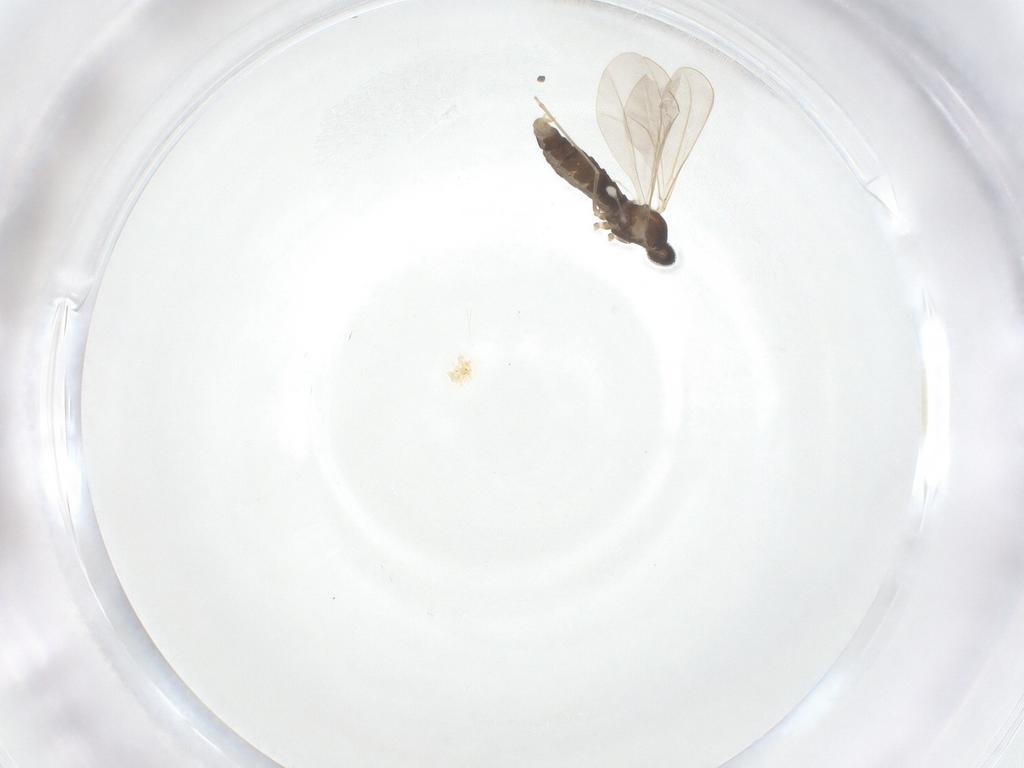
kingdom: Animalia
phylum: Arthropoda
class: Insecta
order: Diptera
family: Cecidomyiidae
